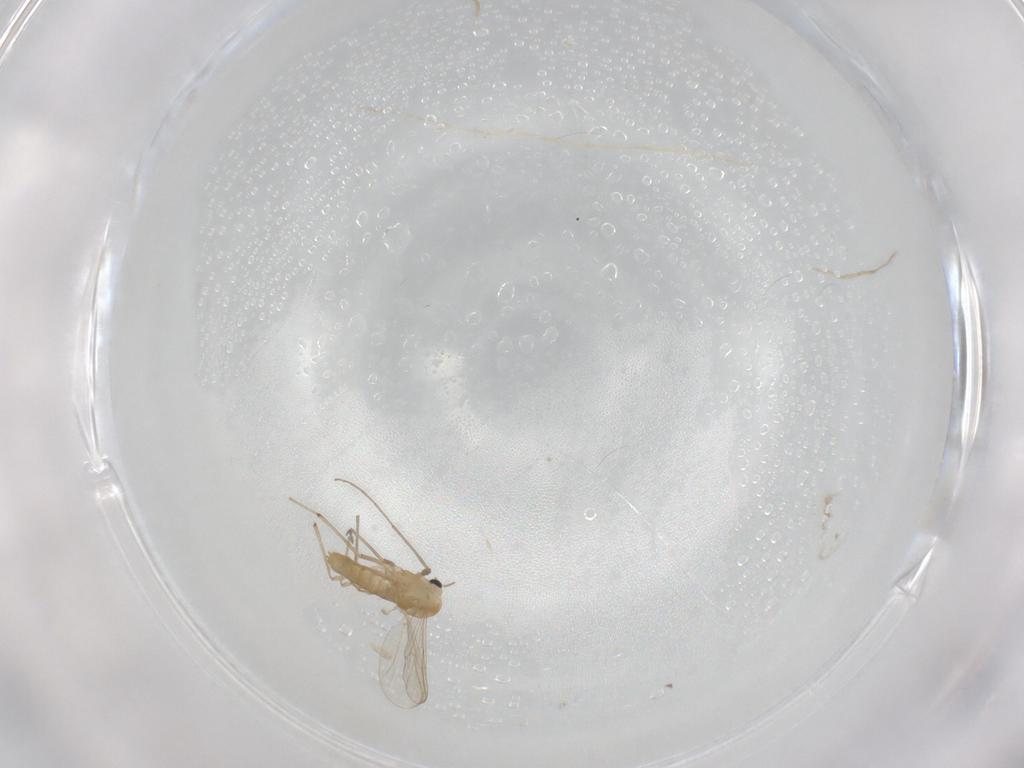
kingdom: Animalia
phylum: Arthropoda
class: Insecta
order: Diptera
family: Chironomidae
